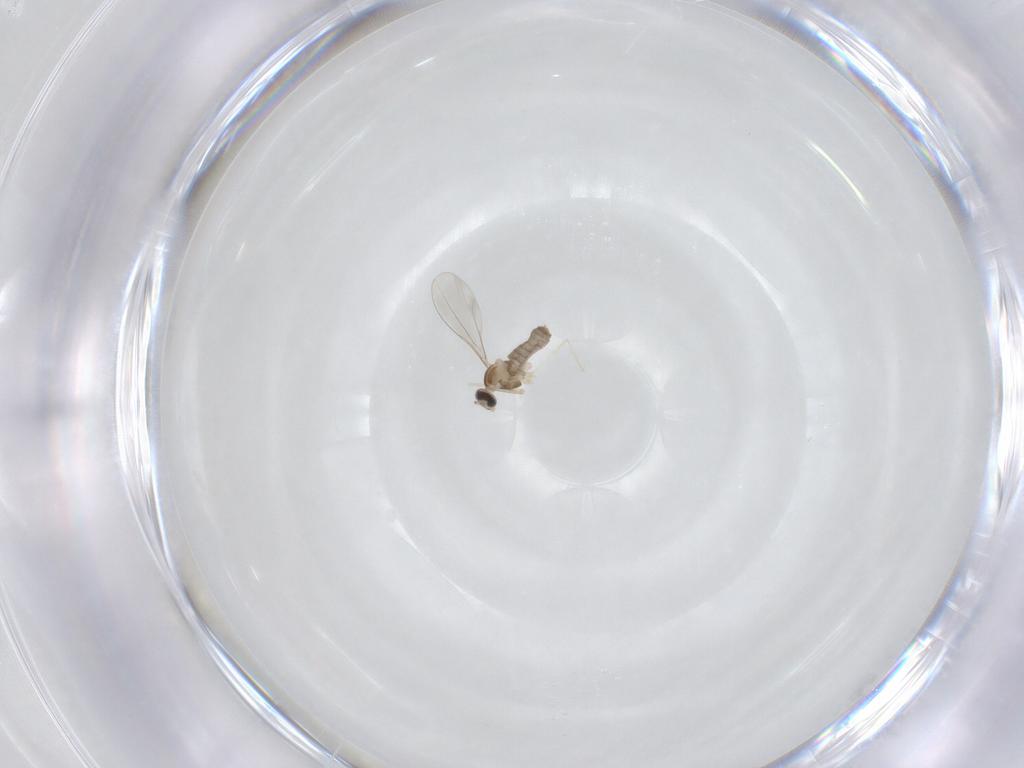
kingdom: Animalia
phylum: Arthropoda
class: Insecta
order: Diptera
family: Cecidomyiidae
